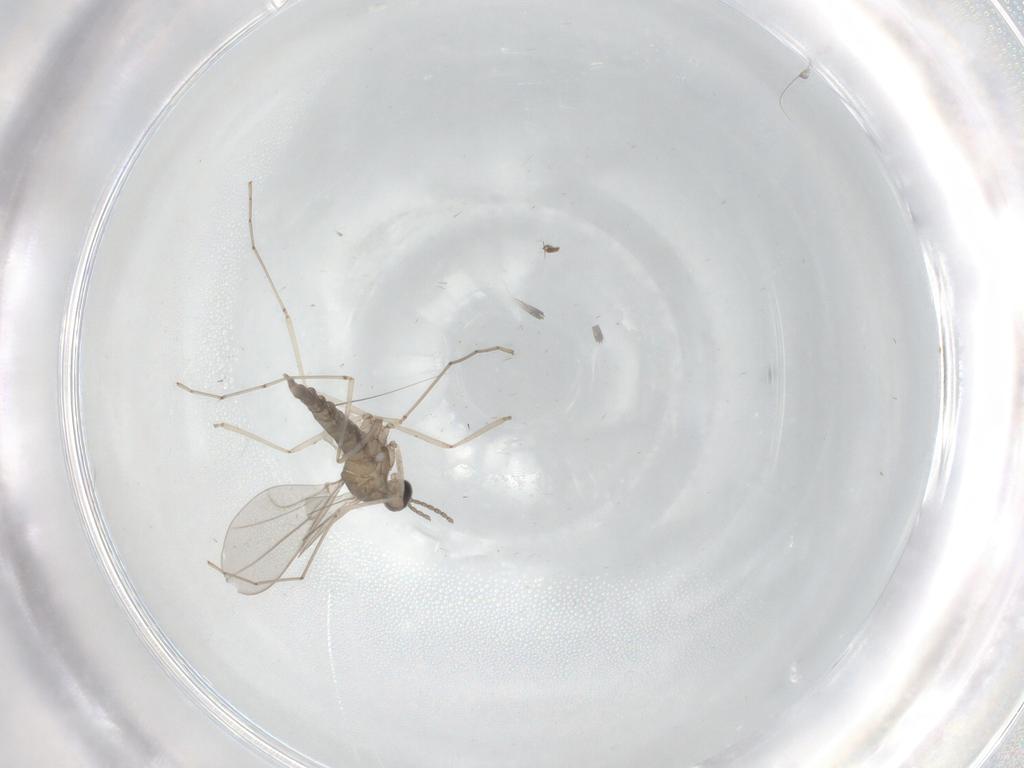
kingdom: Animalia
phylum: Arthropoda
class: Insecta
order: Diptera
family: Cecidomyiidae
